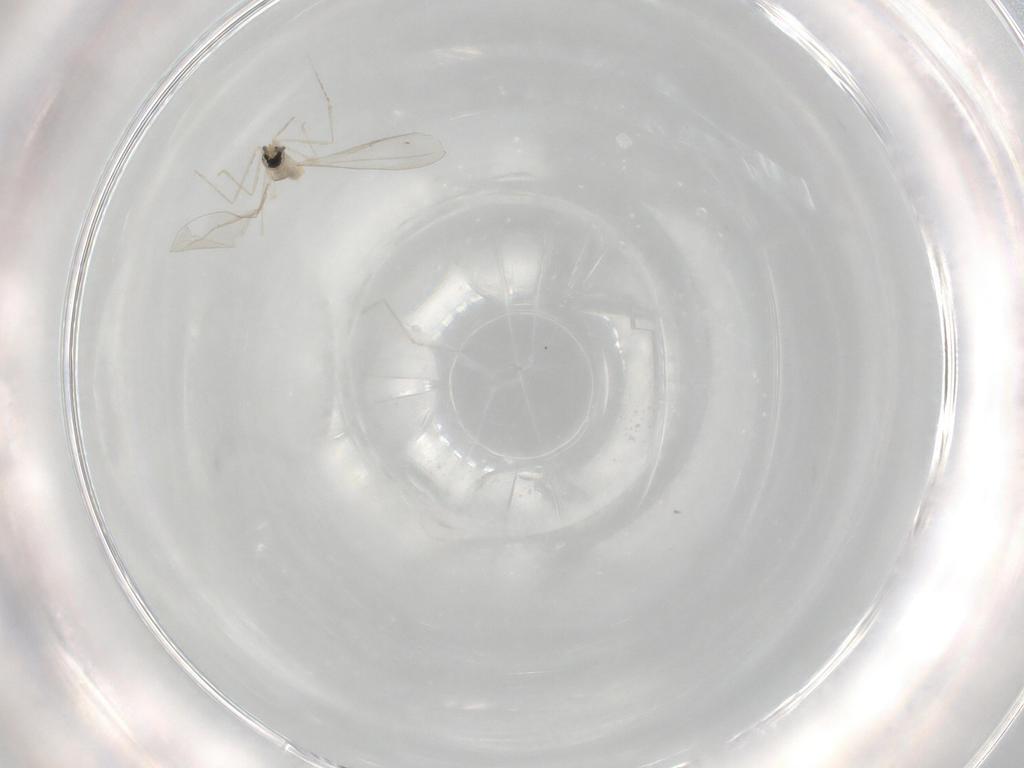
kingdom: Animalia
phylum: Arthropoda
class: Insecta
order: Diptera
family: Cecidomyiidae
